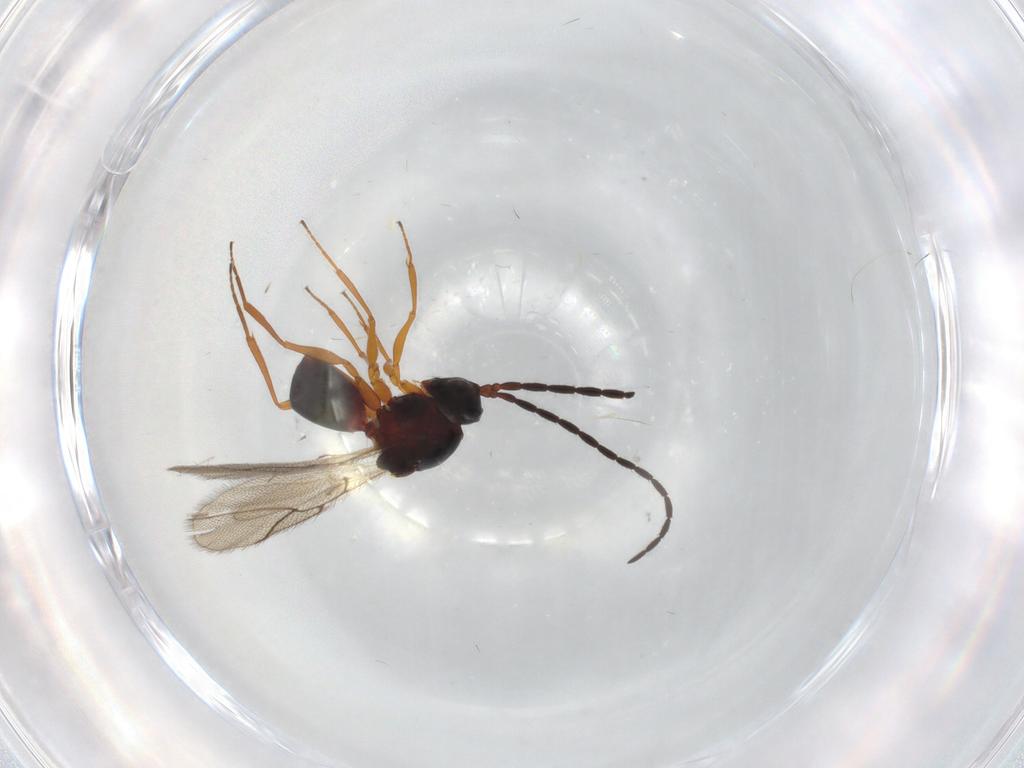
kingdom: Animalia
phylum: Arthropoda
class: Insecta
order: Hymenoptera
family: Figitidae
